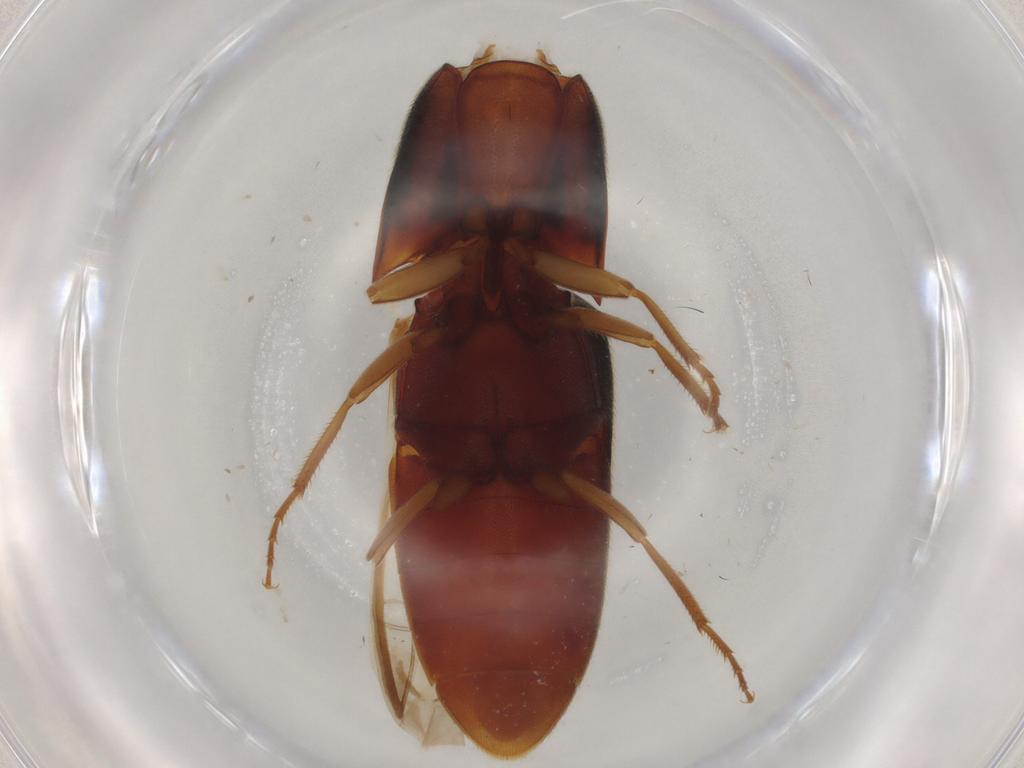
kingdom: Animalia
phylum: Arthropoda
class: Insecta
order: Coleoptera
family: Elateridae
